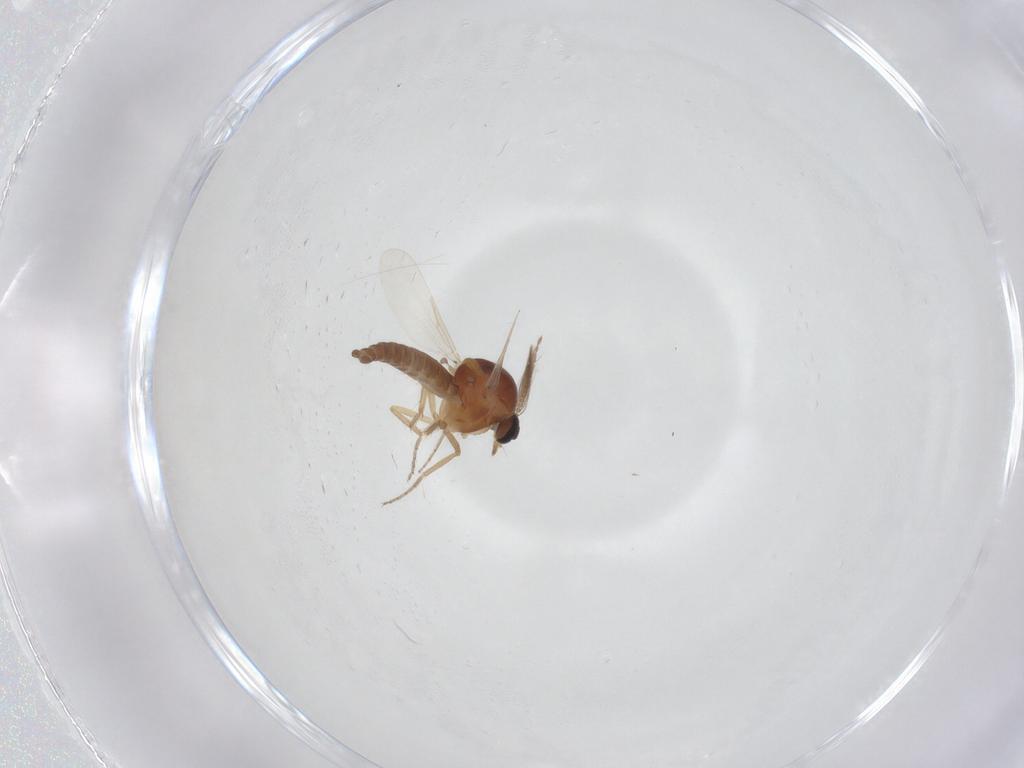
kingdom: Animalia
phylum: Arthropoda
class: Insecta
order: Diptera
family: Ceratopogonidae
